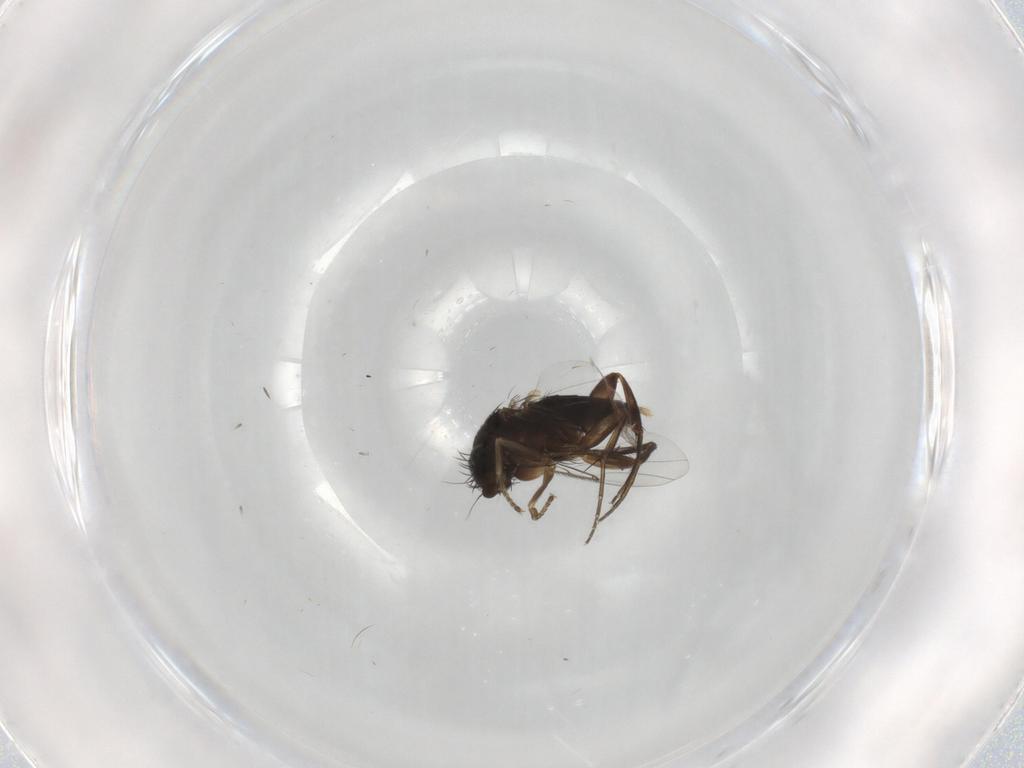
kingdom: Animalia
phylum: Arthropoda
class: Insecta
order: Diptera
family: Phoridae
